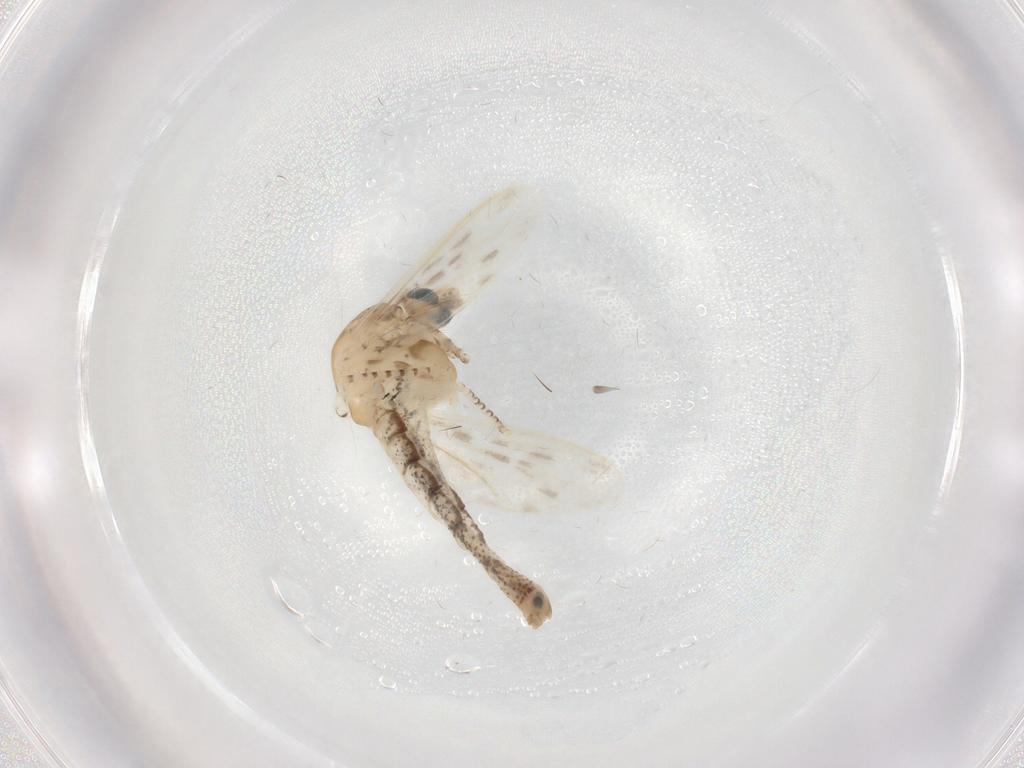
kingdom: Animalia
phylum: Arthropoda
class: Insecta
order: Diptera
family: Chaoboridae
